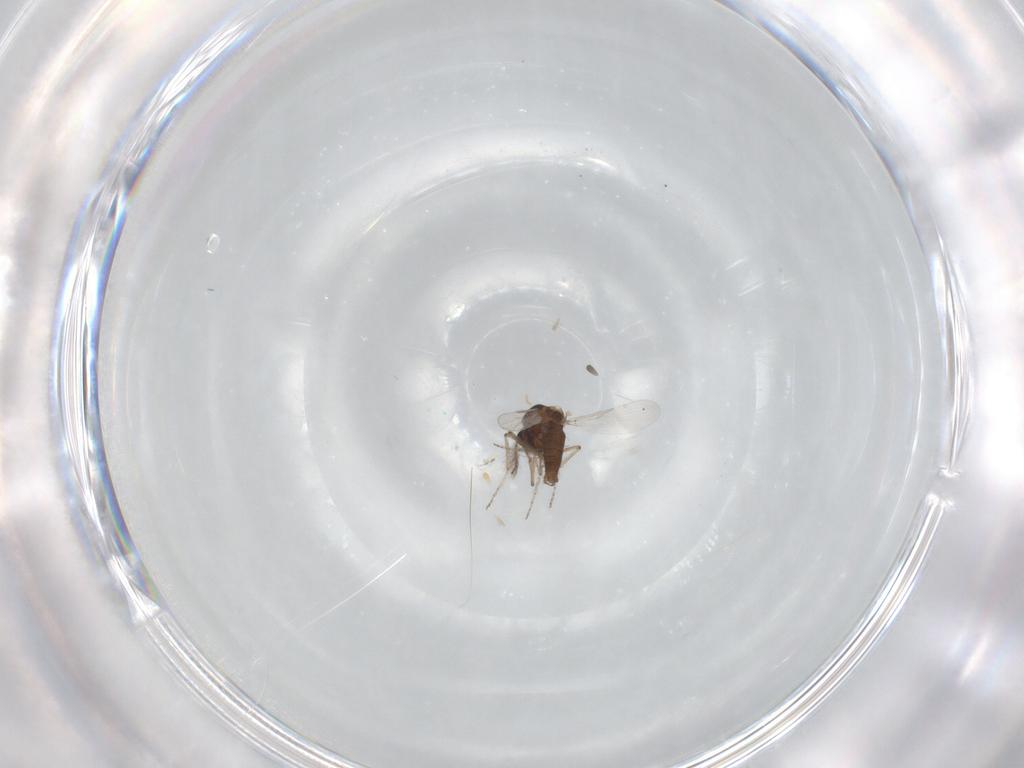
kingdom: Animalia
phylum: Arthropoda
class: Insecta
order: Diptera
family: Ceratopogonidae
